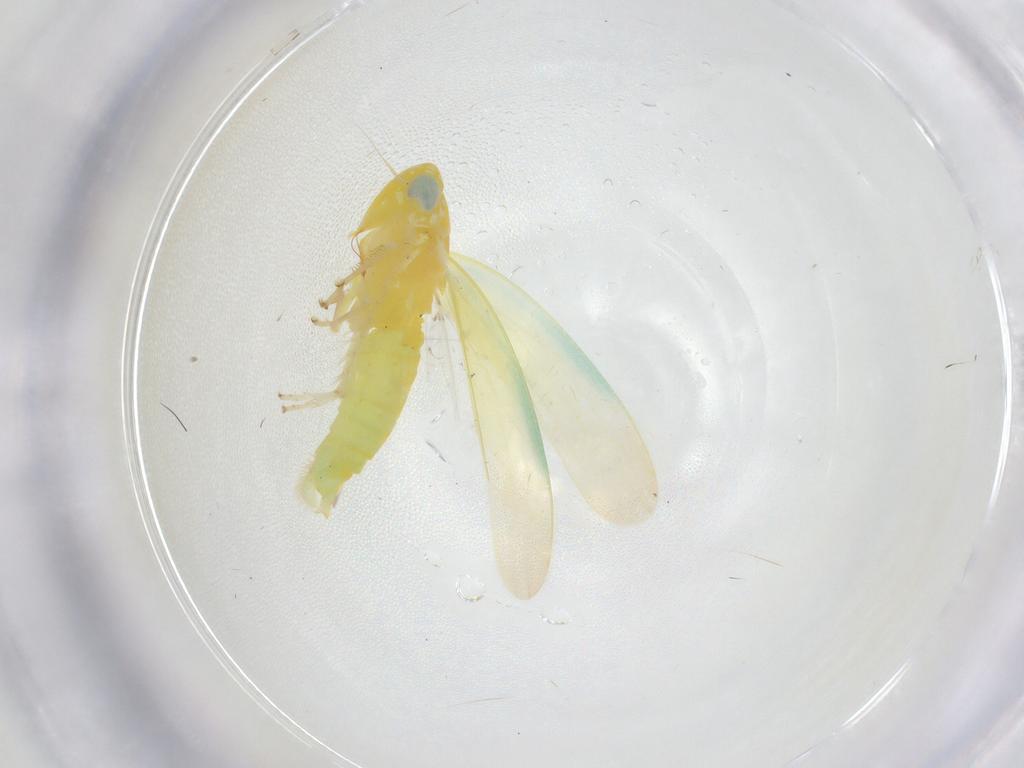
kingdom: Animalia
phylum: Arthropoda
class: Insecta
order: Hemiptera
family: Cicadellidae
